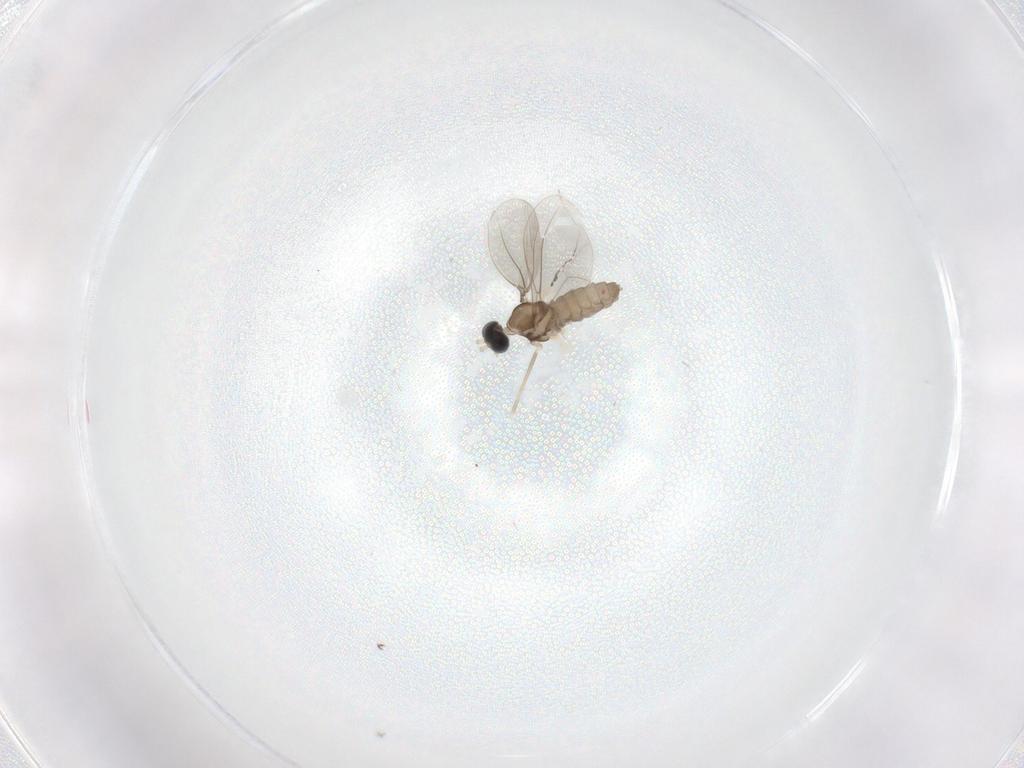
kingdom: Animalia
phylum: Arthropoda
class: Insecta
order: Diptera
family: Cecidomyiidae
